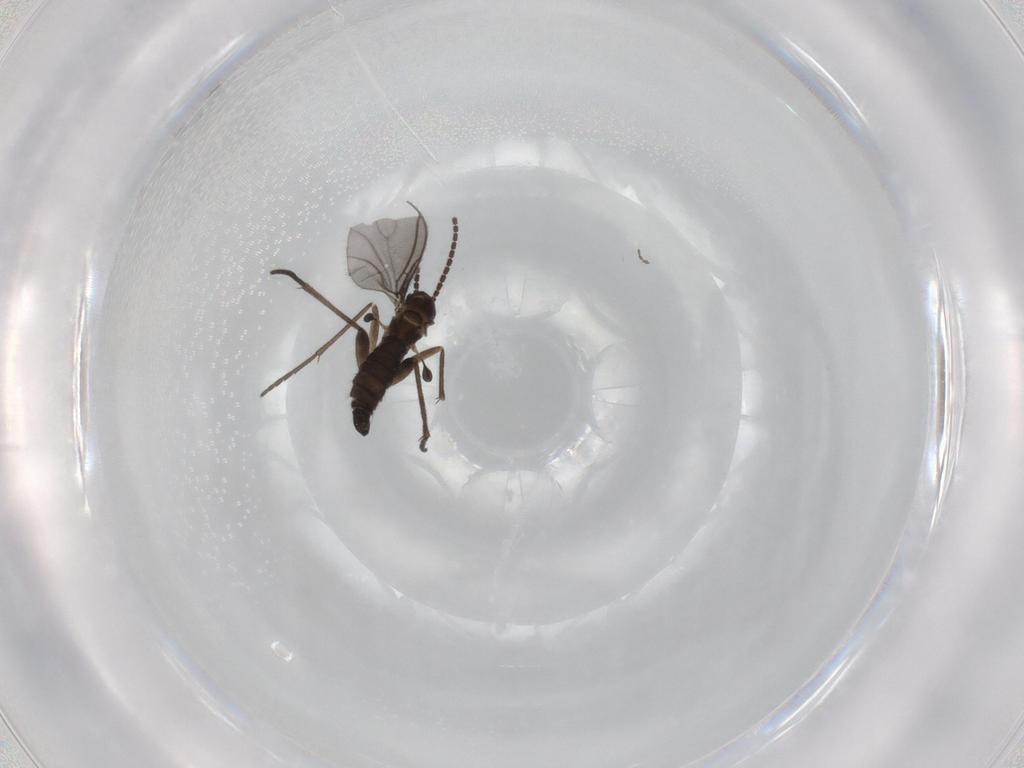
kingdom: Animalia
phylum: Arthropoda
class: Insecta
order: Diptera
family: Sciaridae
